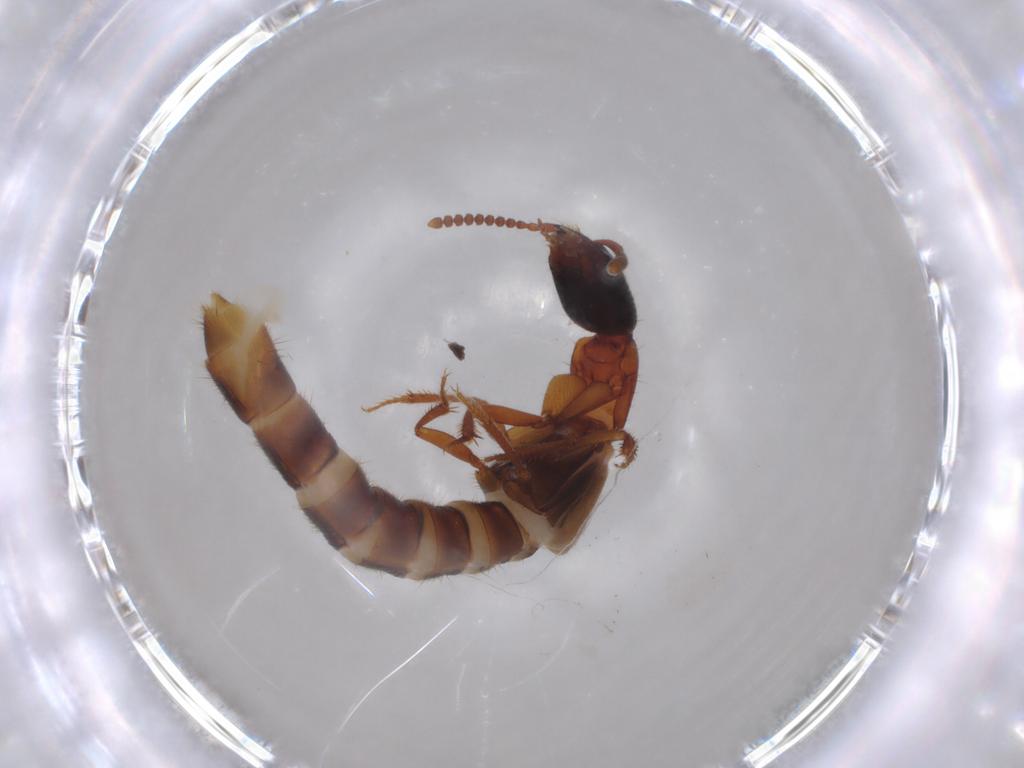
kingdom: Animalia
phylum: Arthropoda
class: Insecta
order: Coleoptera
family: Staphylinidae
